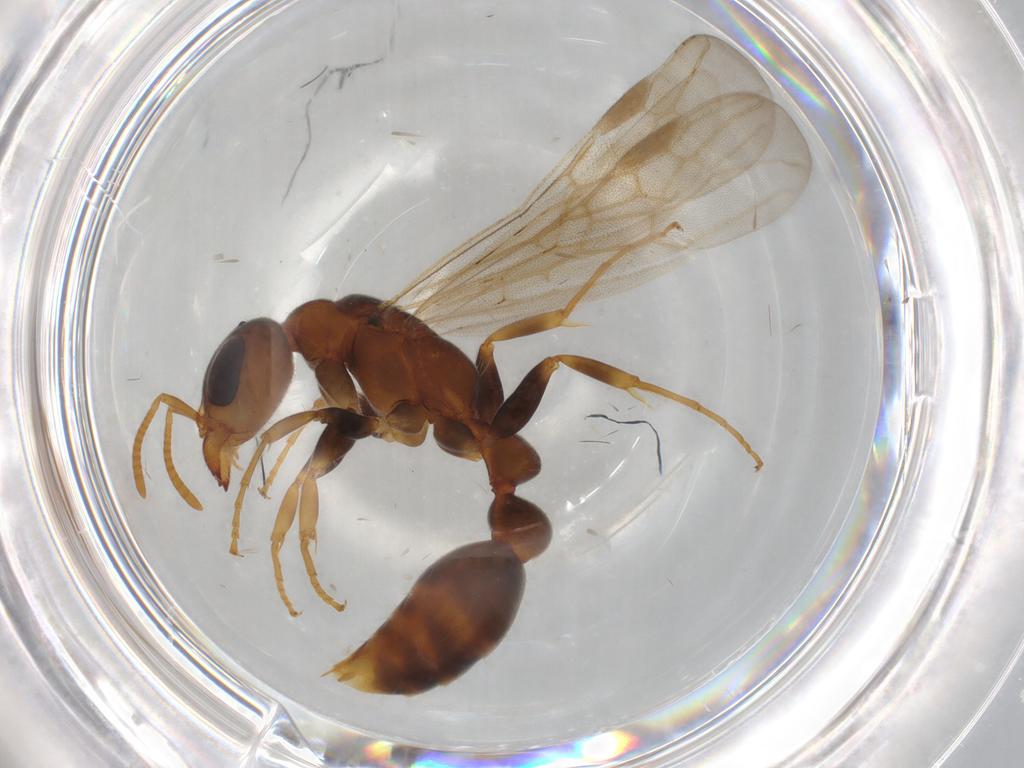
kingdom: Animalia
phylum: Arthropoda
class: Insecta
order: Hymenoptera
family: Formicidae
